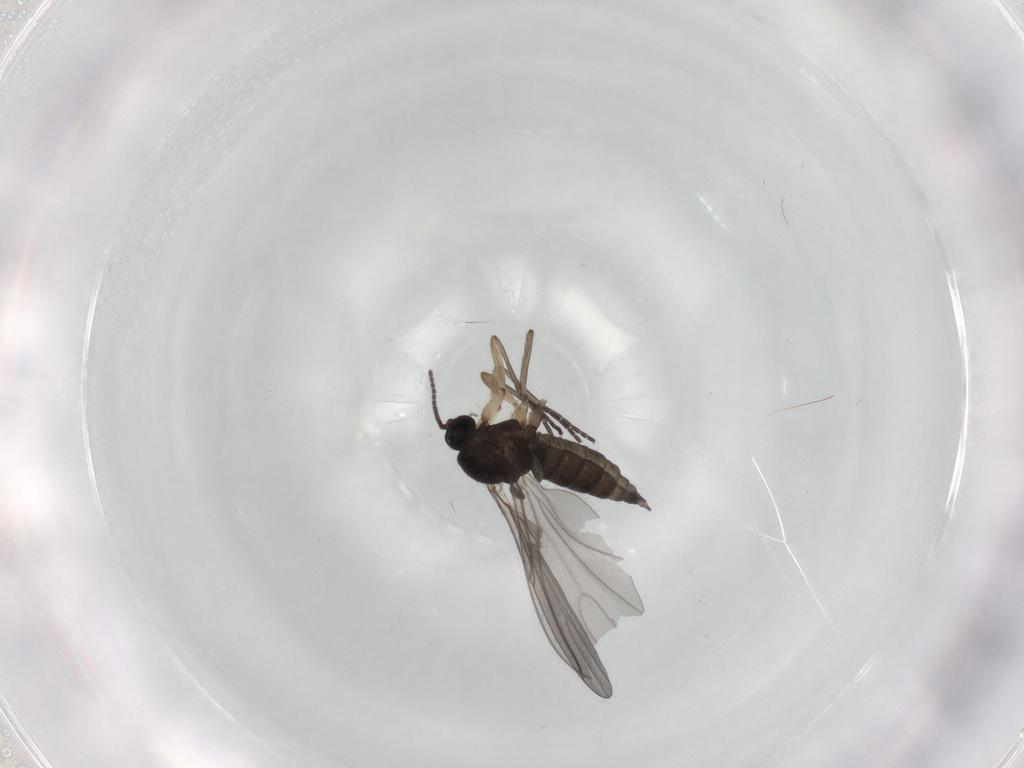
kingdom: Animalia
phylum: Arthropoda
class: Insecta
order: Diptera
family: Sciaridae
